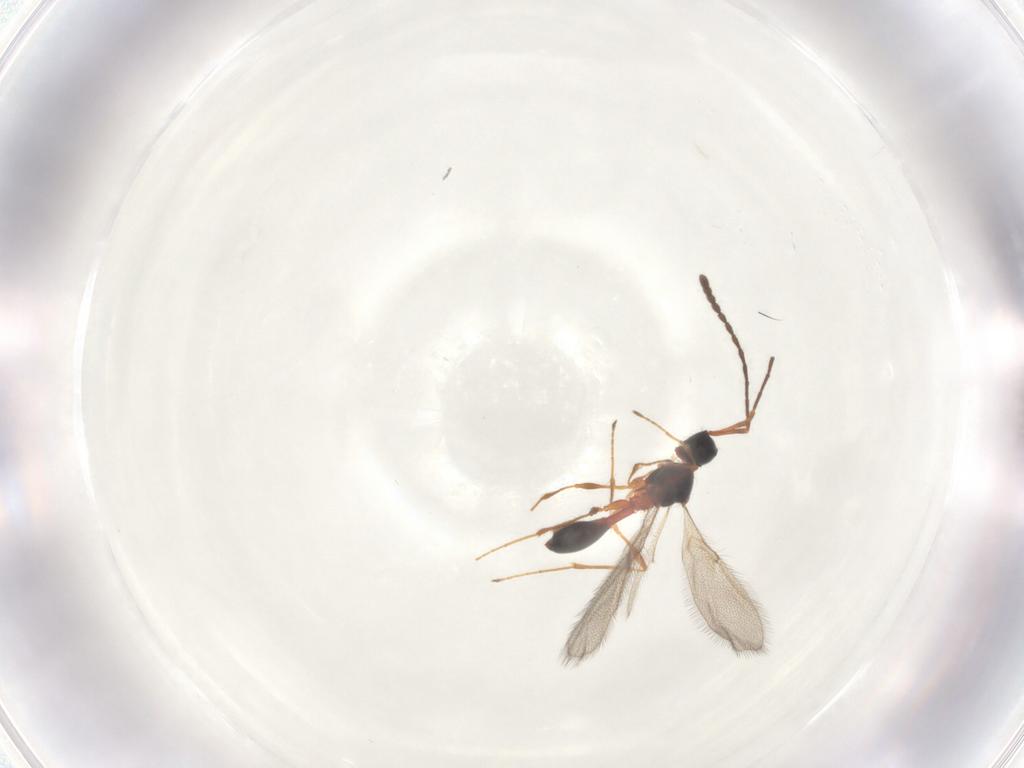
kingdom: Animalia
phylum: Arthropoda
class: Insecta
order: Hymenoptera
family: Diapriidae
